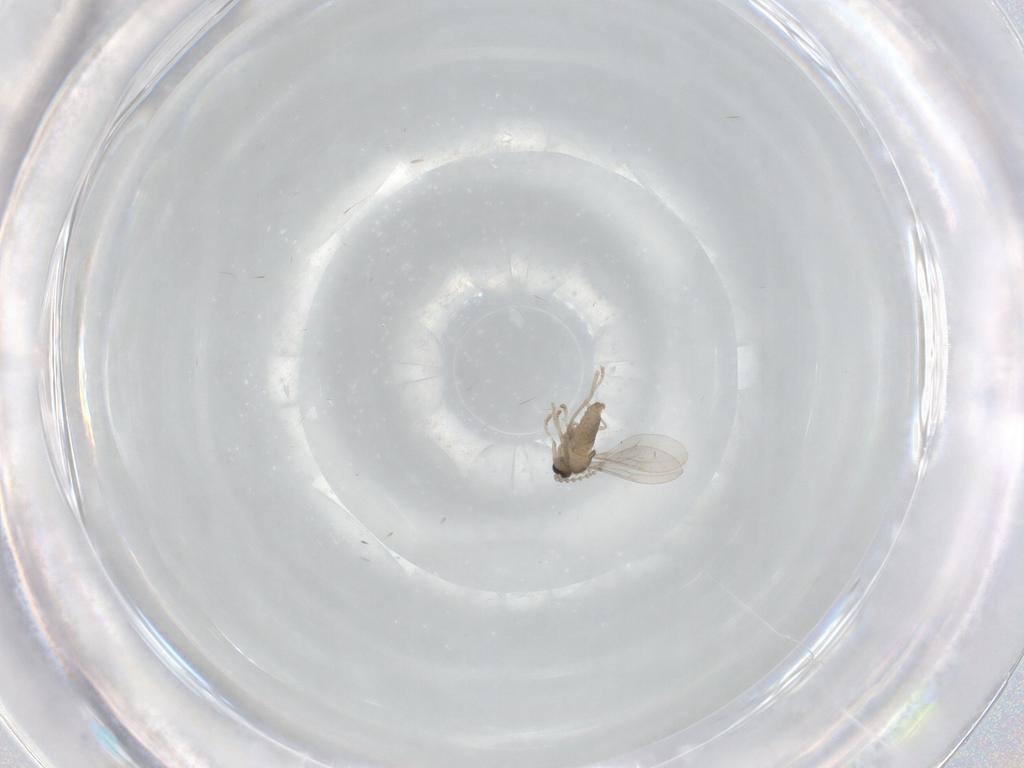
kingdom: Animalia
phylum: Arthropoda
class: Insecta
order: Diptera
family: Cecidomyiidae
